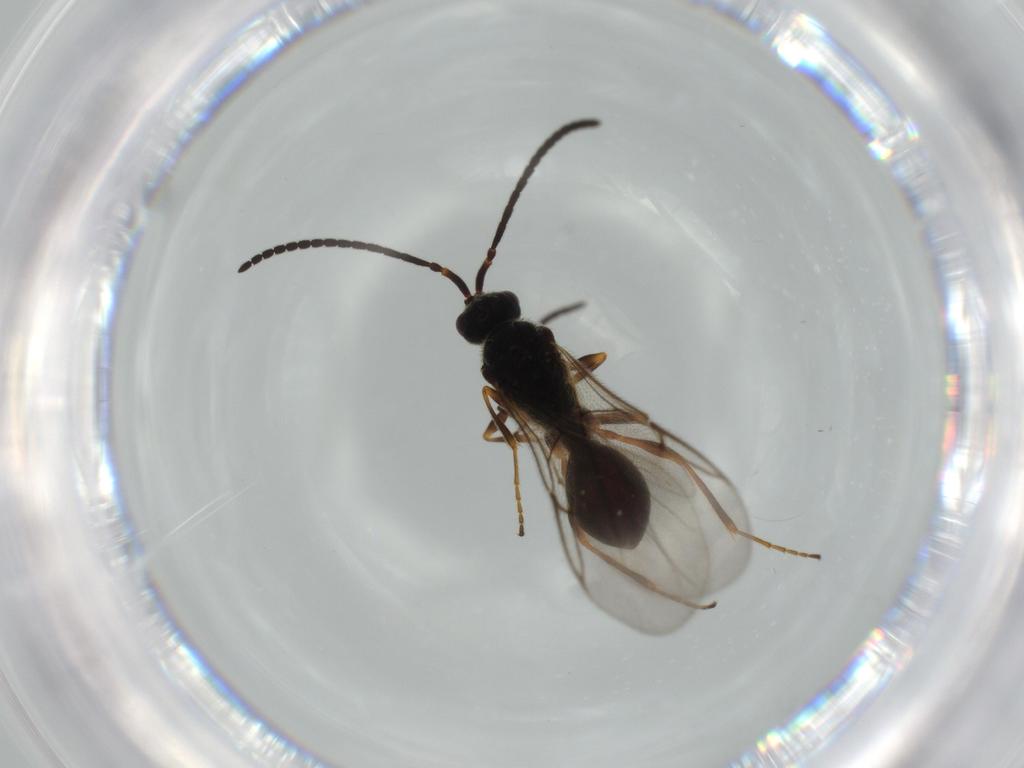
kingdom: Animalia
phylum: Arthropoda
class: Insecta
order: Hymenoptera
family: Diapriidae
